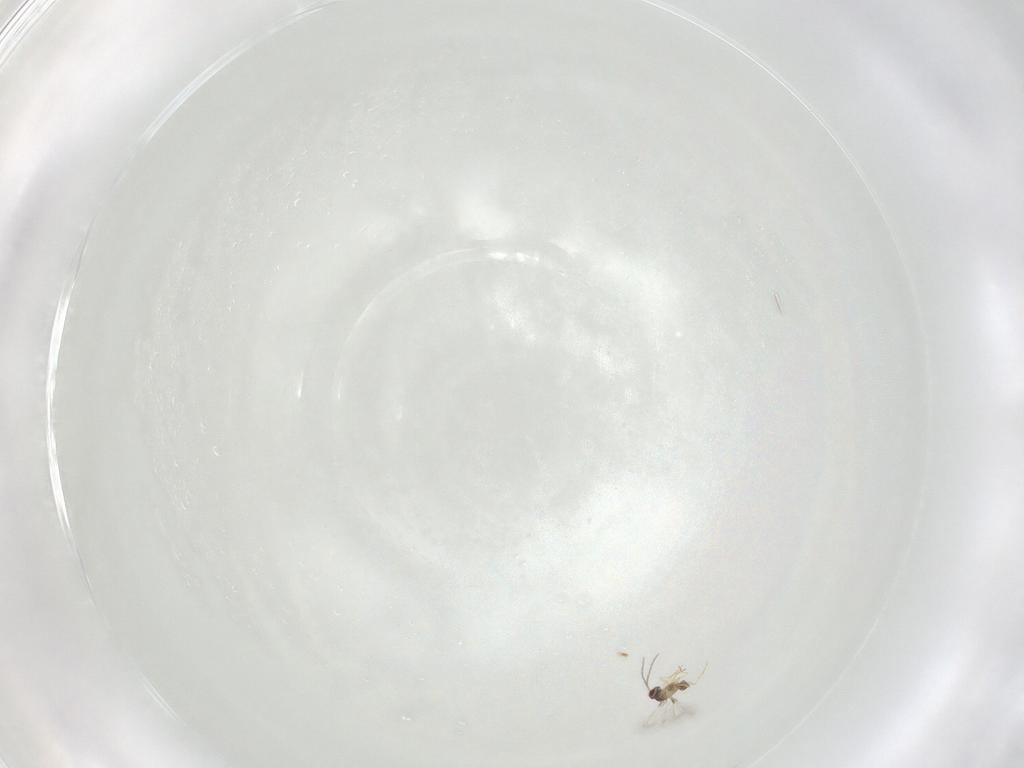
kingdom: Animalia
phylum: Arthropoda
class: Insecta
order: Hymenoptera
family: Mymaridae
